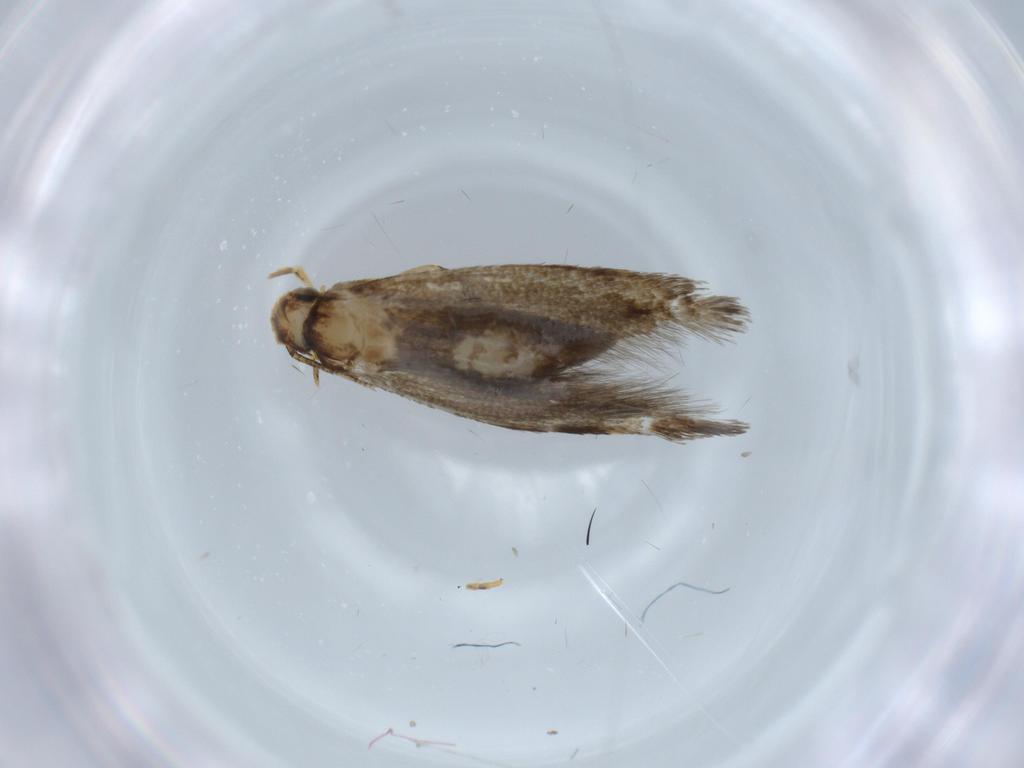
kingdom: Animalia
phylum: Arthropoda
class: Insecta
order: Lepidoptera
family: Tineidae
